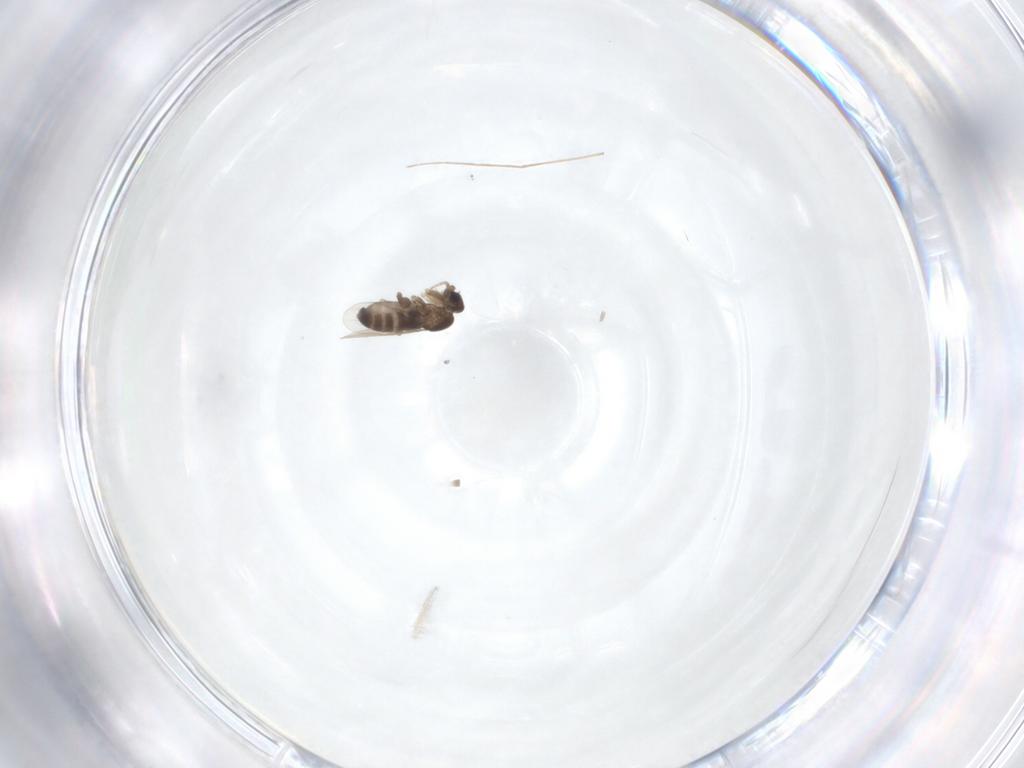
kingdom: Animalia
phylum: Arthropoda
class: Insecta
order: Diptera
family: Phoridae
